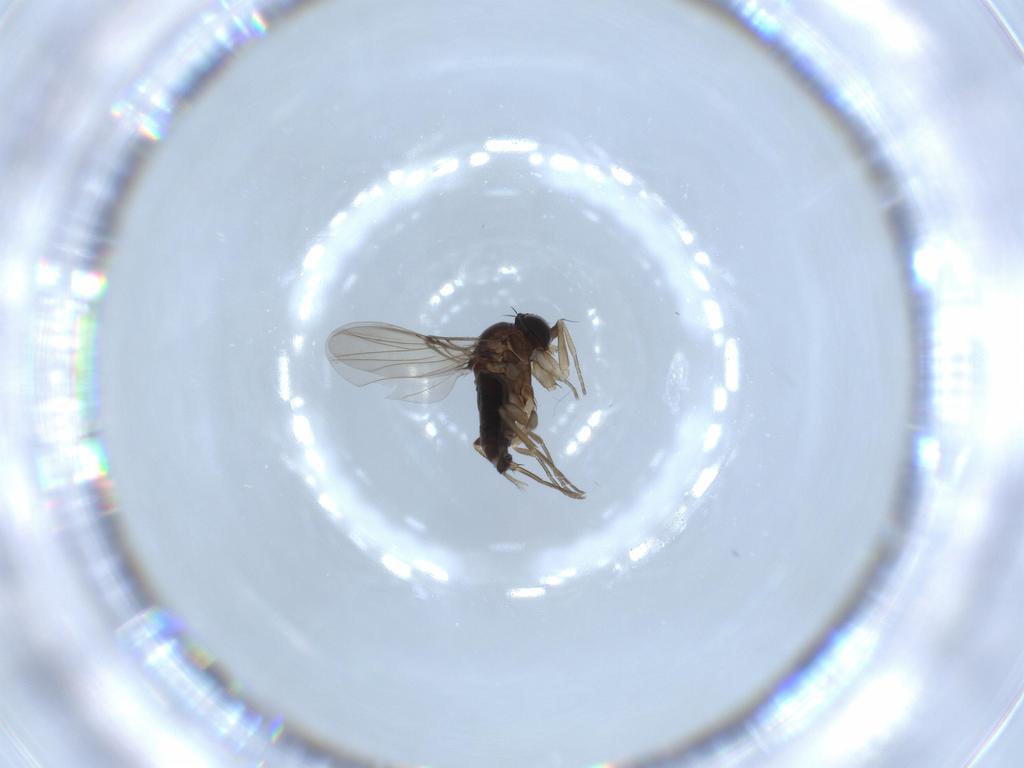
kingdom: Animalia
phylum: Arthropoda
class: Insecta
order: Diptera
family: Phoridae
